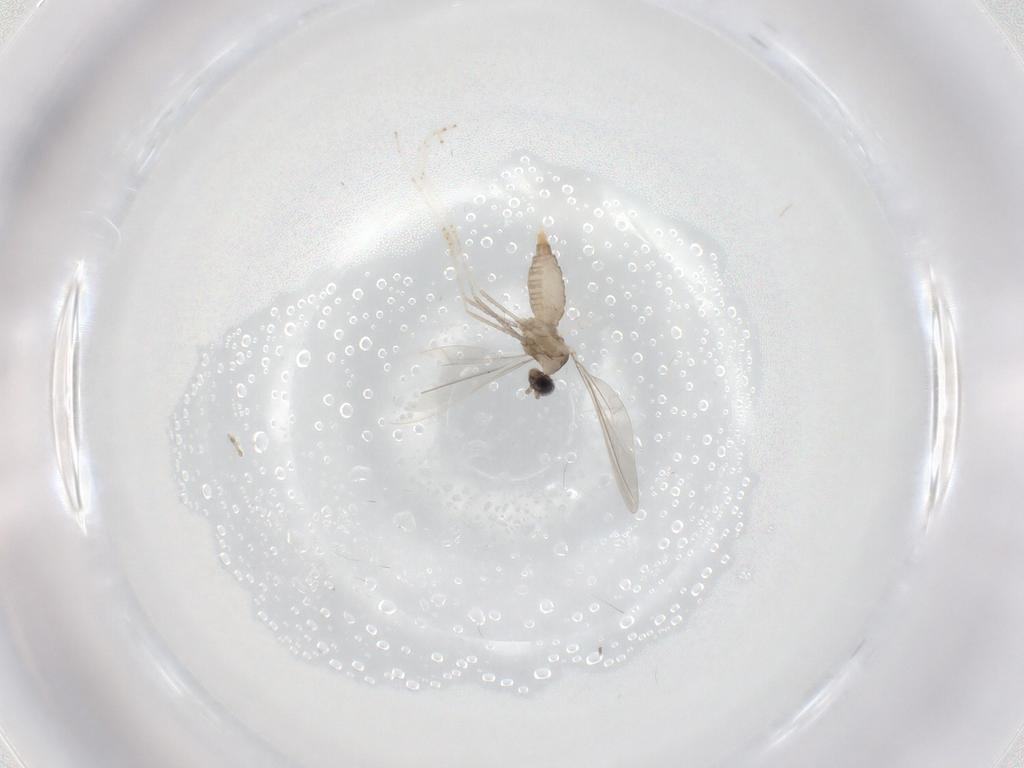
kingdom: Animalia
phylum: Arthropoda
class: Insecta
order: Diptera
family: Cecidomyiidae
